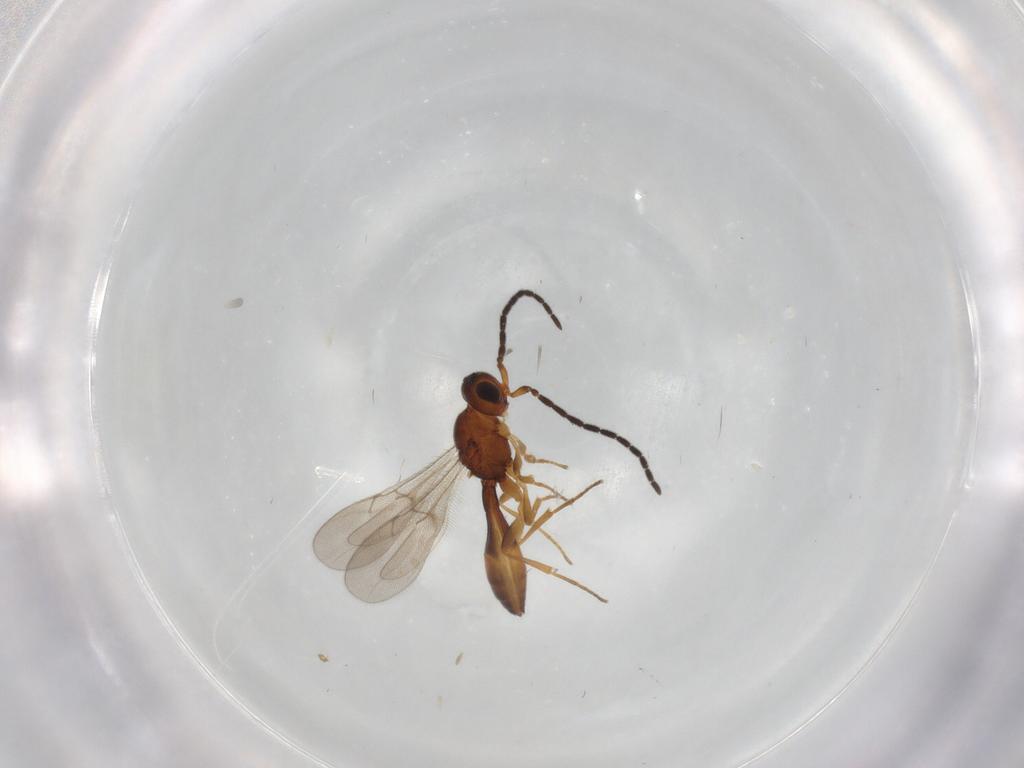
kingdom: Animalia
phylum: Arthropoda
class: Insecta
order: Hymenoptera
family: Scelionidae
